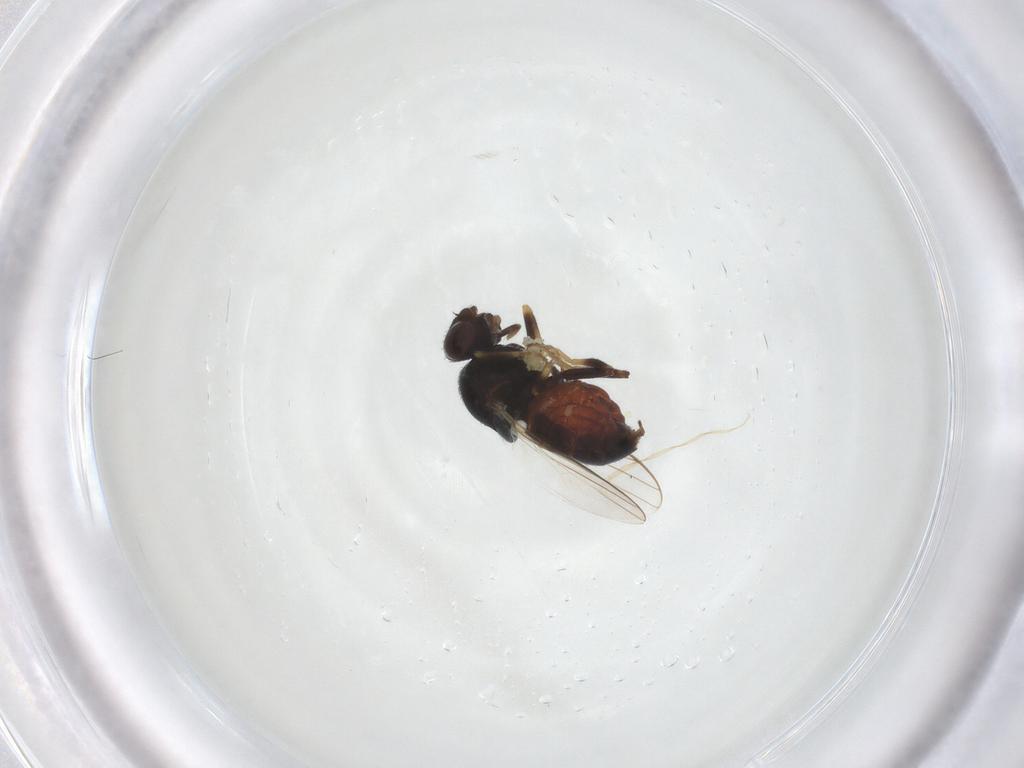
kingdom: Animalia
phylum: Arthropoda
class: Insecta
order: Diptera
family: Chloropidae
